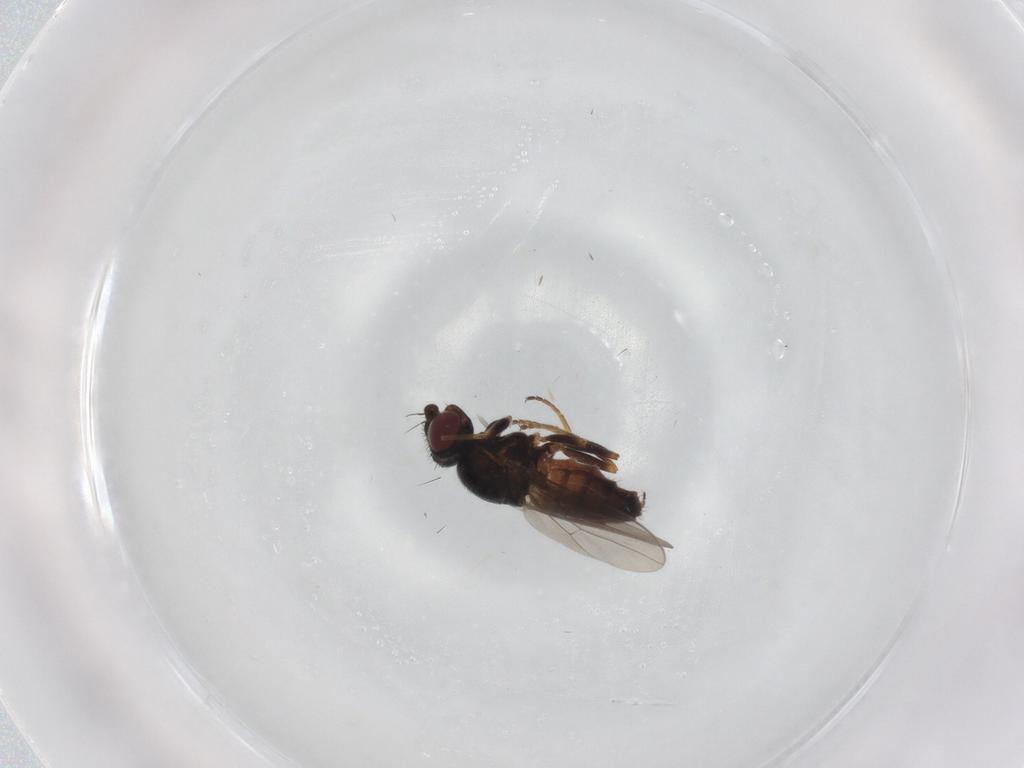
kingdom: Animalia
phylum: Arthropoda
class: Insecta
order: Diptera
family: Chloropidae
